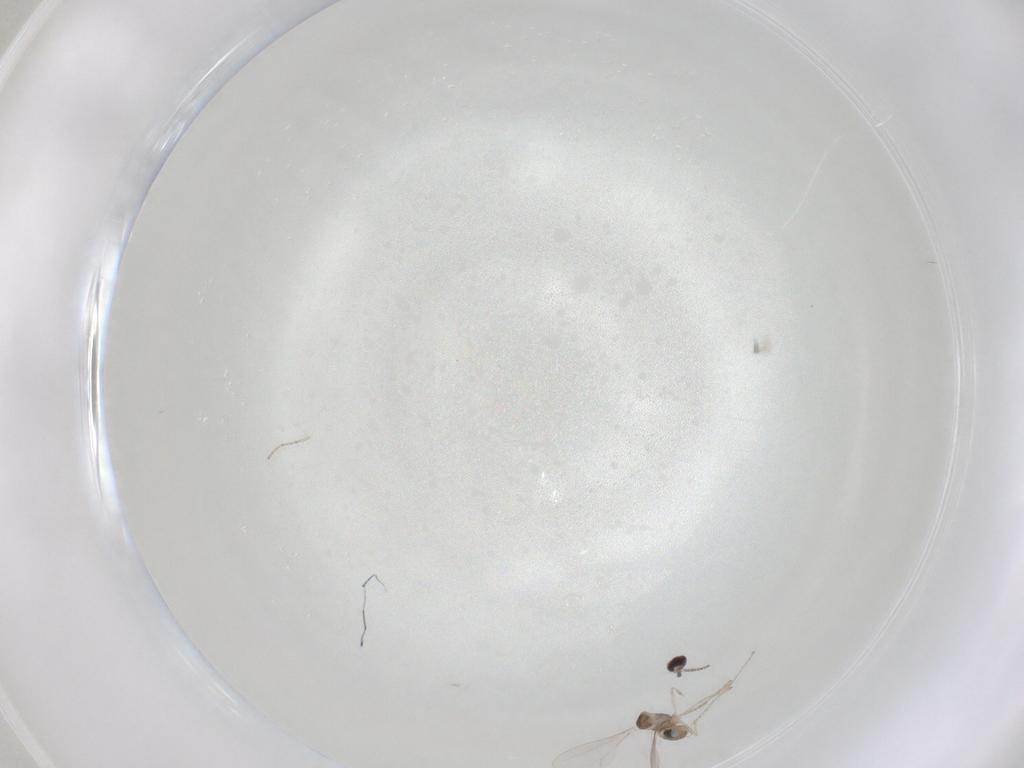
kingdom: Animalia
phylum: Arthropoda
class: Insecta
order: Diptera
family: Cecidomyiidae
